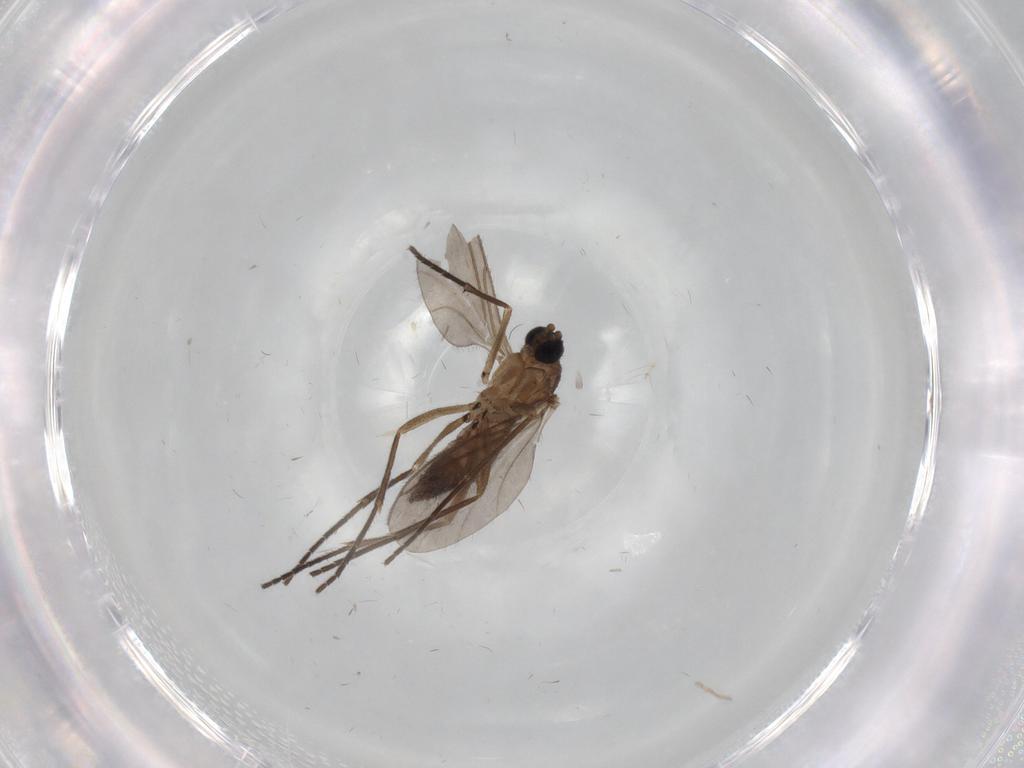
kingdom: Animalia
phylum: Arthropoda
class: Insecta
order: Diptera
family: Chironomidae
